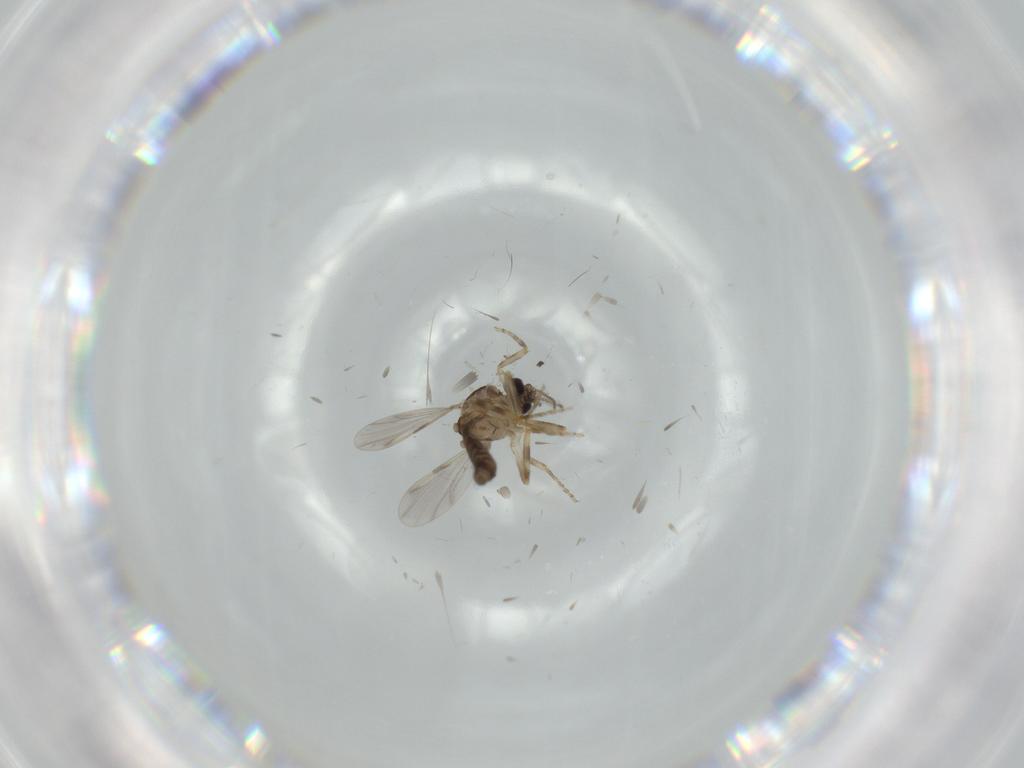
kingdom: Animalia
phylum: Arthropoda
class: Insecta
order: Diptera
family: Ceratopogonidae
